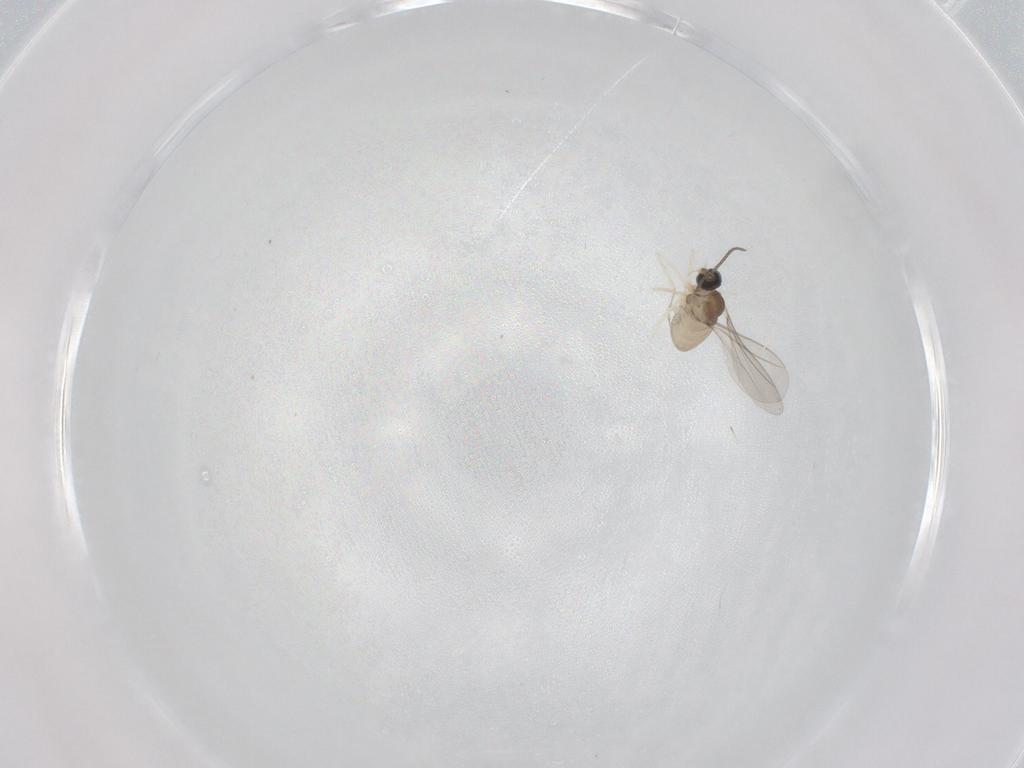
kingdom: Animalia
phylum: Arthropoda
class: Insecta
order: Diptera
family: Cecidomyiidae
